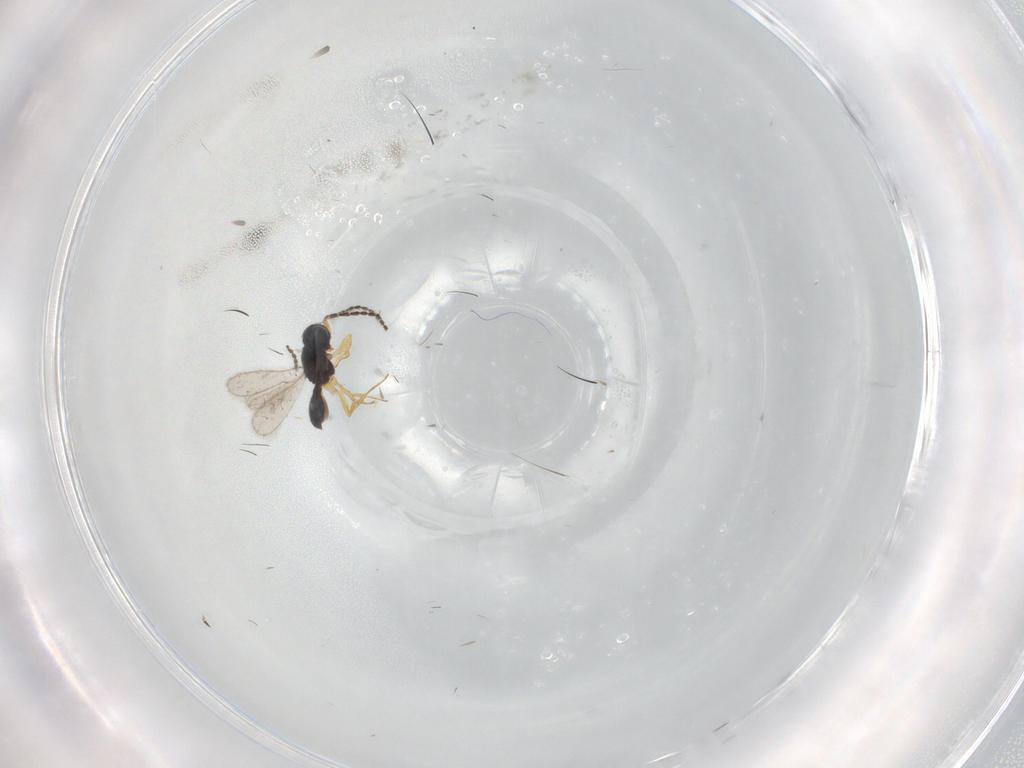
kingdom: Animalia
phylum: Arthropoda
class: Insecta
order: Hymenoptera
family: Scelionidae
